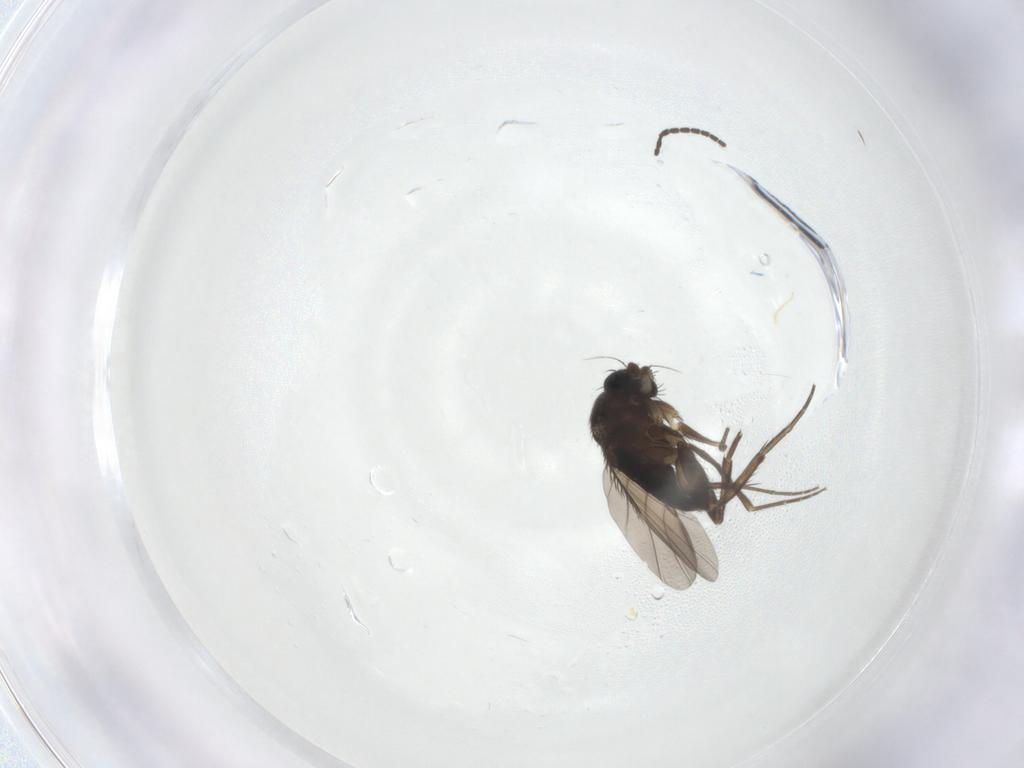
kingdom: Animalia
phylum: Arthropoda
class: Insecta
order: Diptera
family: Phoridae
